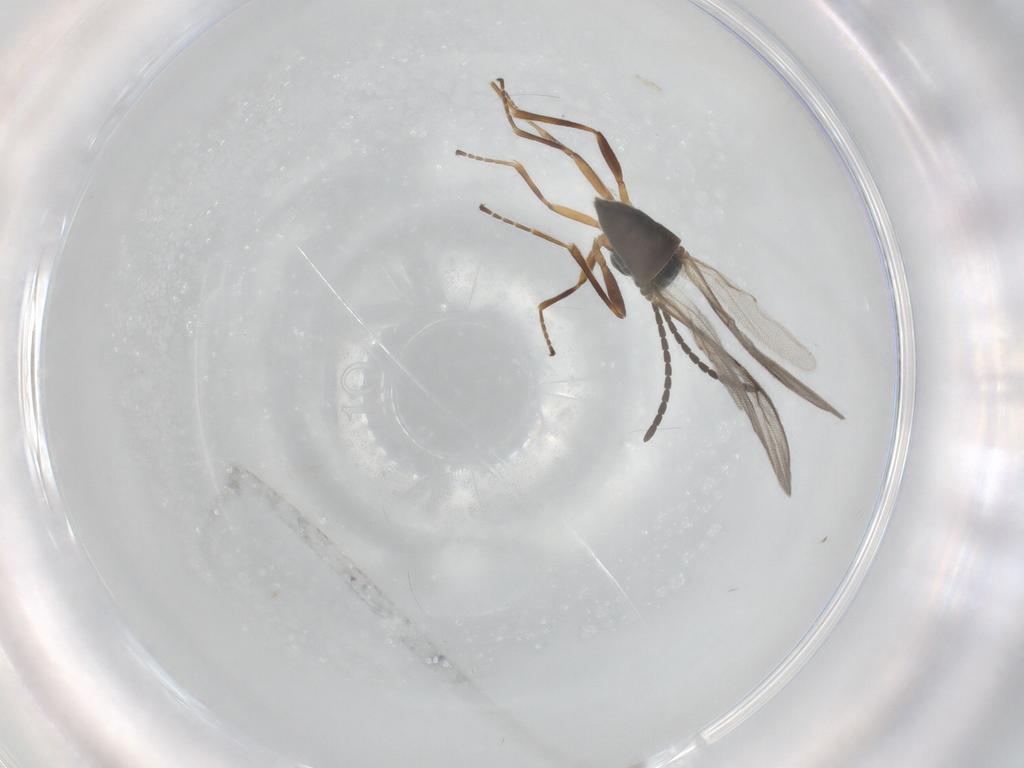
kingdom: Animalia
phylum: Arthropoda
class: Insecta
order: Hymenoptera
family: Braconidae
